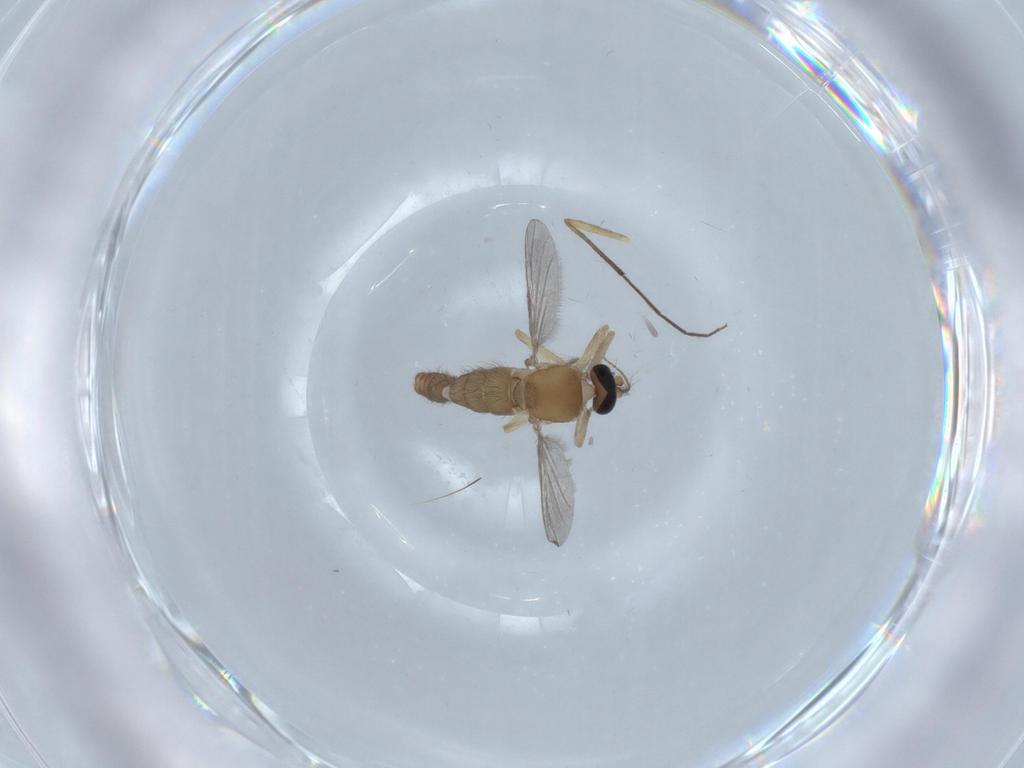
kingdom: Animalia
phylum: Arthropoda
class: Insecta
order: Diptera
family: Ceratopogonidae
